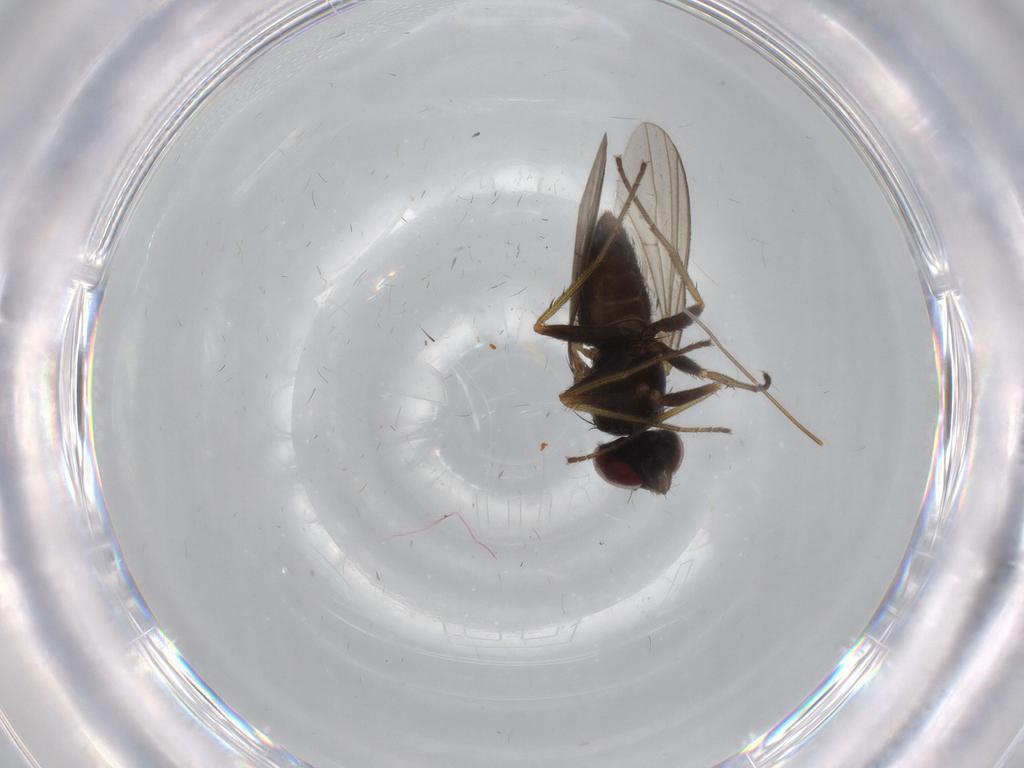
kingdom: Animalia
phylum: Arthropoda
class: Insecta
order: Diptera
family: Dolichopodidae
